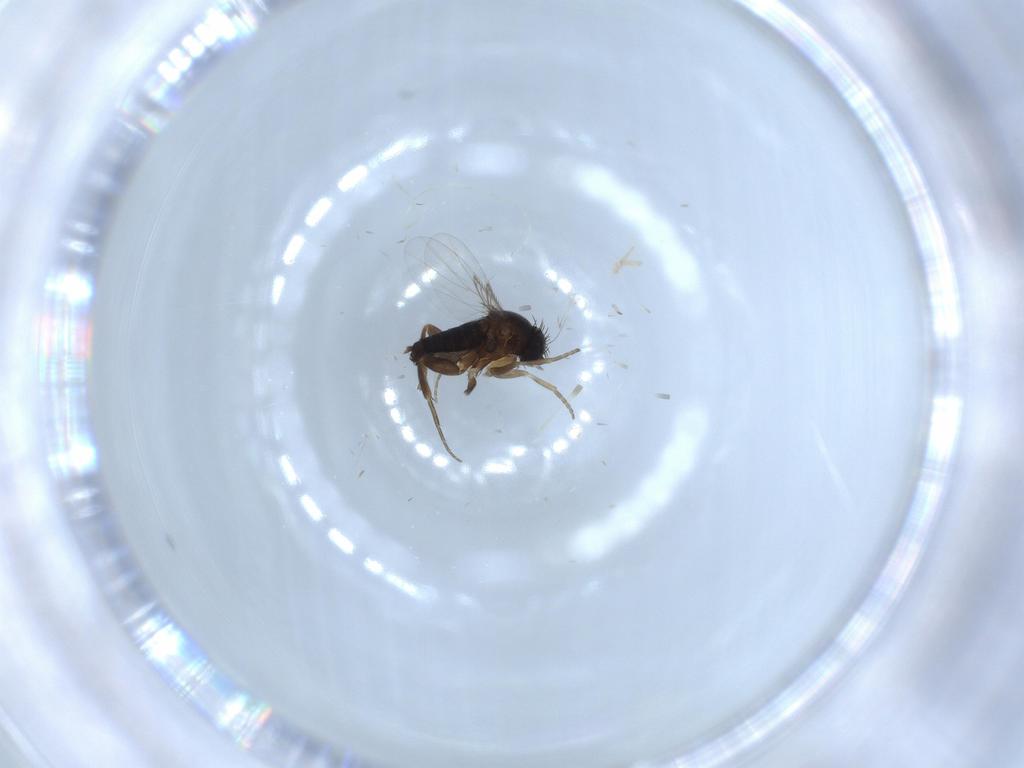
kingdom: Animalia
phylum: Arthropoda
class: Insecta
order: Diptera
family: Phoridae
